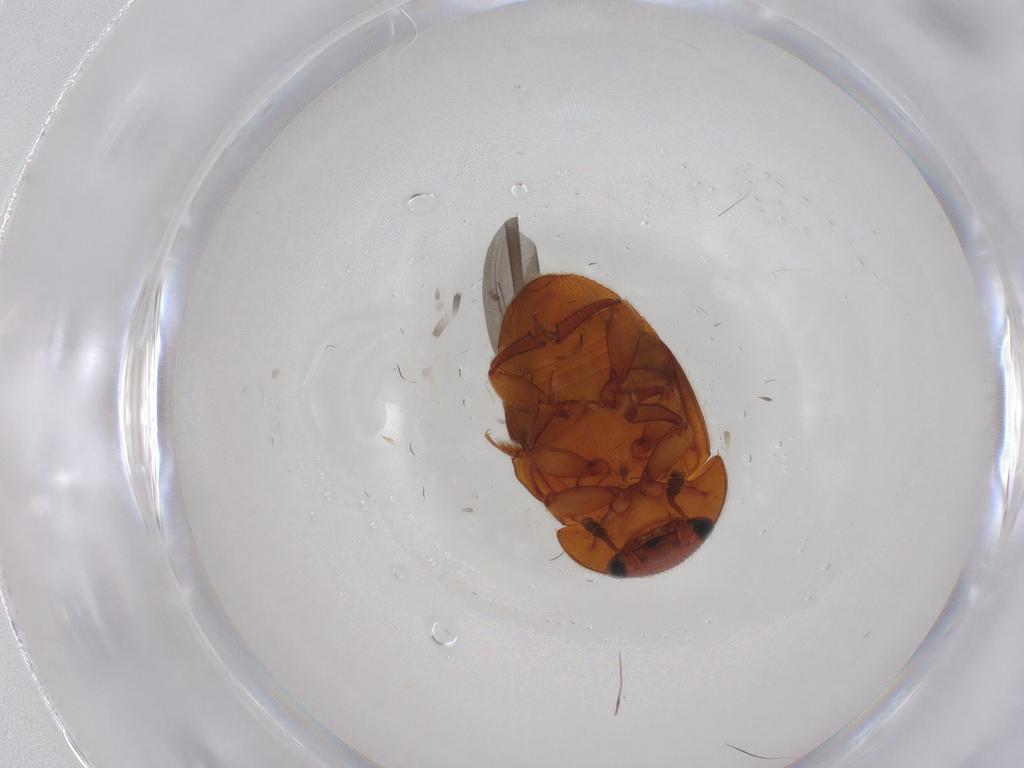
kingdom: Animalia
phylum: Arthropoda
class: Insecta
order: Coleoptera
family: Nitidulidae
